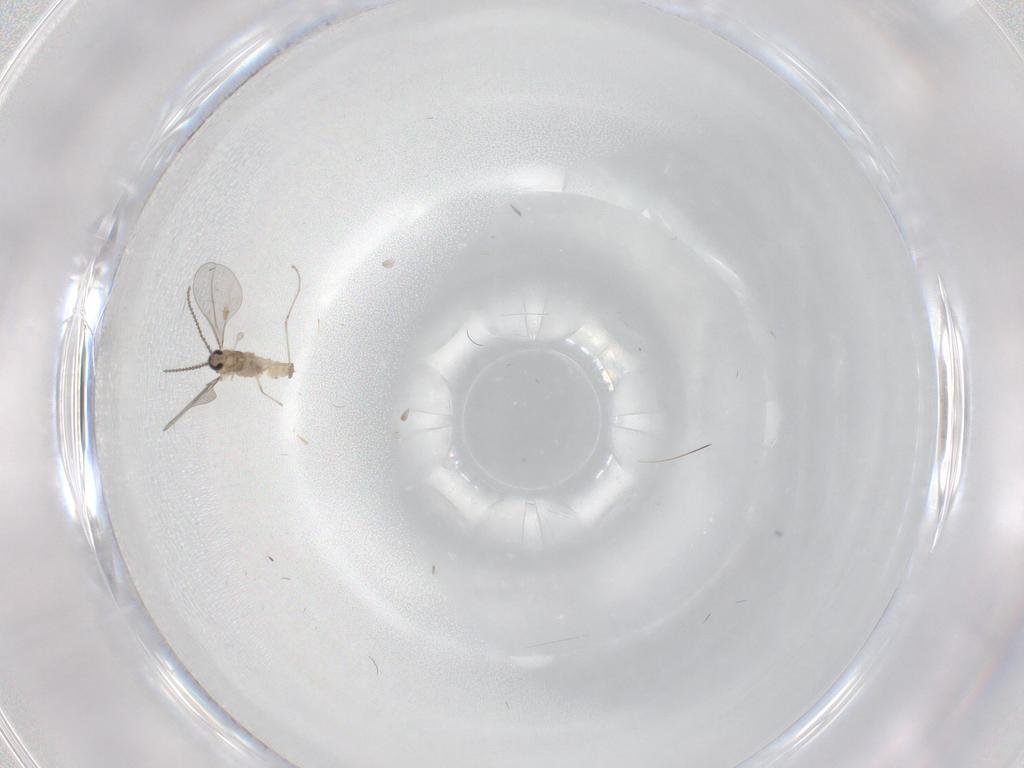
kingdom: Animalia
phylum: Arthropoda
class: Insecta
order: Diptera
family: Cecidomyiidae
